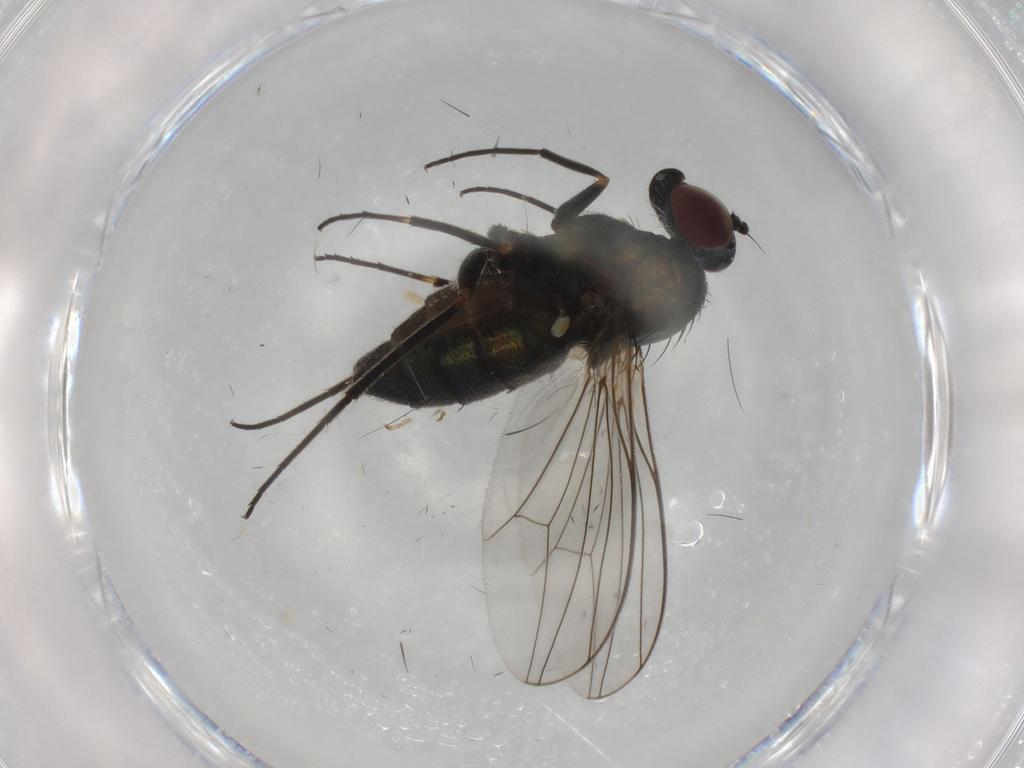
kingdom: Animalia
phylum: Arthropoda
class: Insecta
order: Diptera
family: Dolichopodidae
